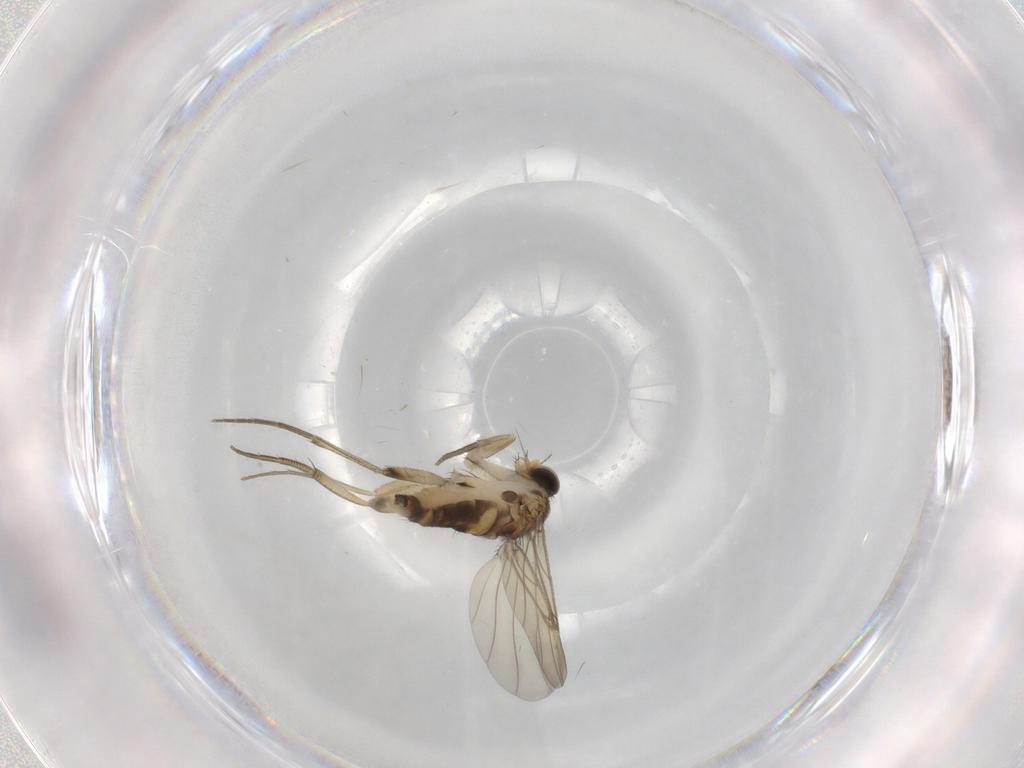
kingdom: Animalia
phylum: Arthropoda
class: Insecta
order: Diptera
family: Phoridae
